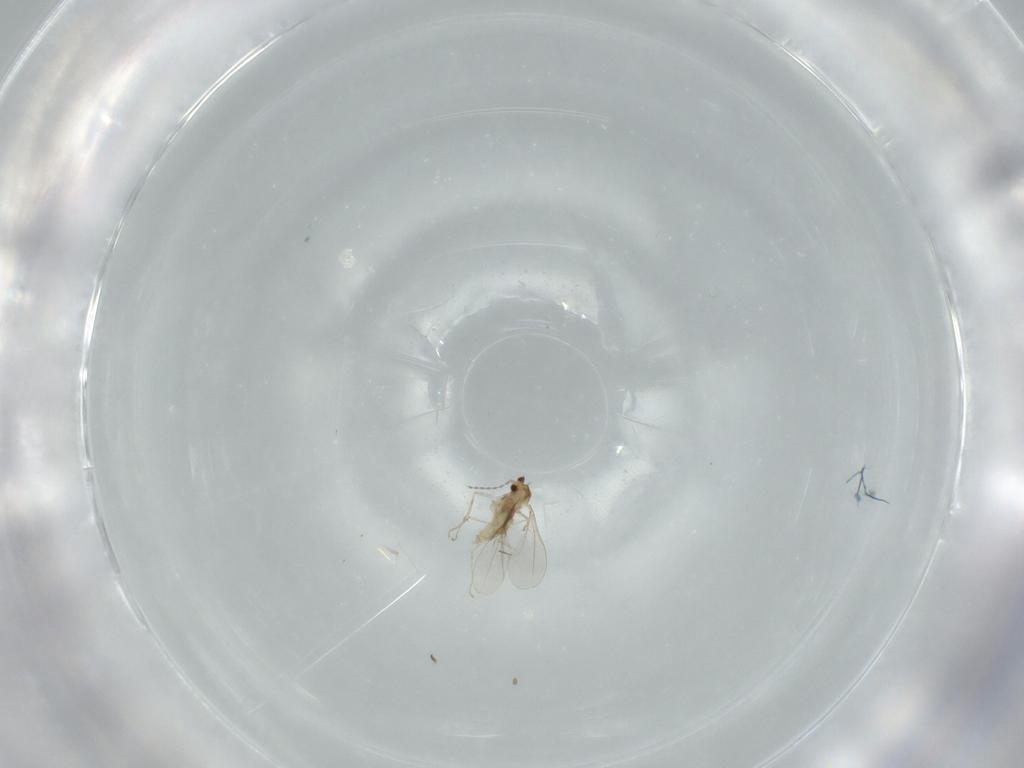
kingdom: Animalia
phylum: Arthropoda
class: Insecta
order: Diptera
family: Cecidomyiidae
